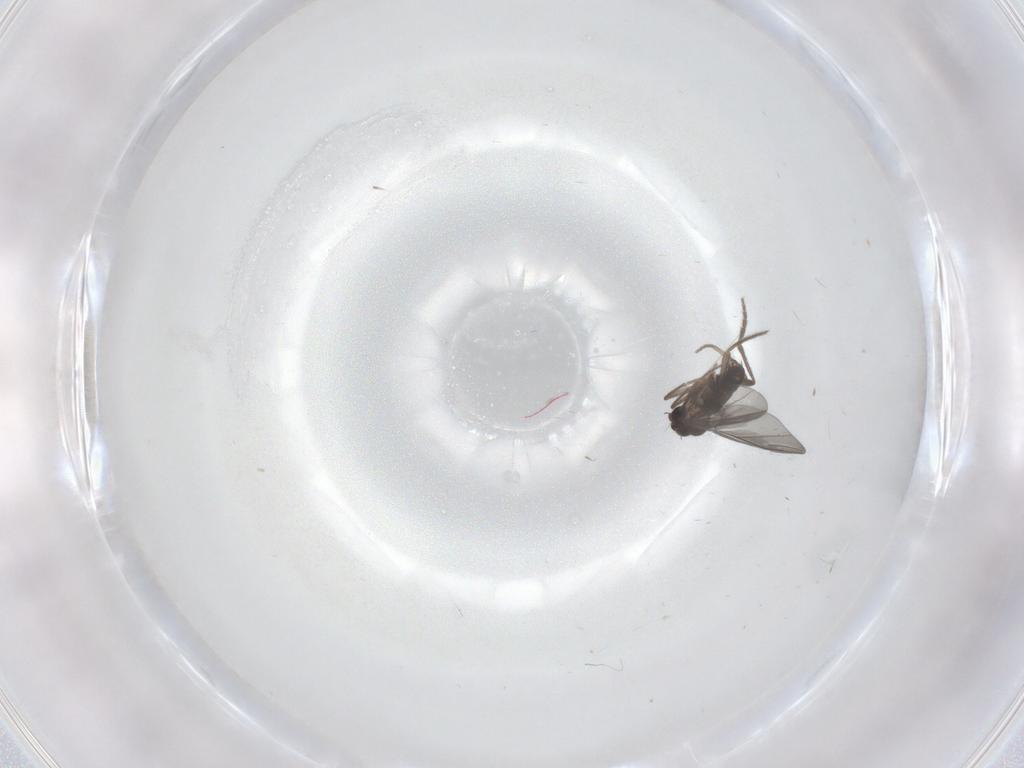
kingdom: Animalia
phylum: Arthropoda
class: Insecta
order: Diptera
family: Phoridae
